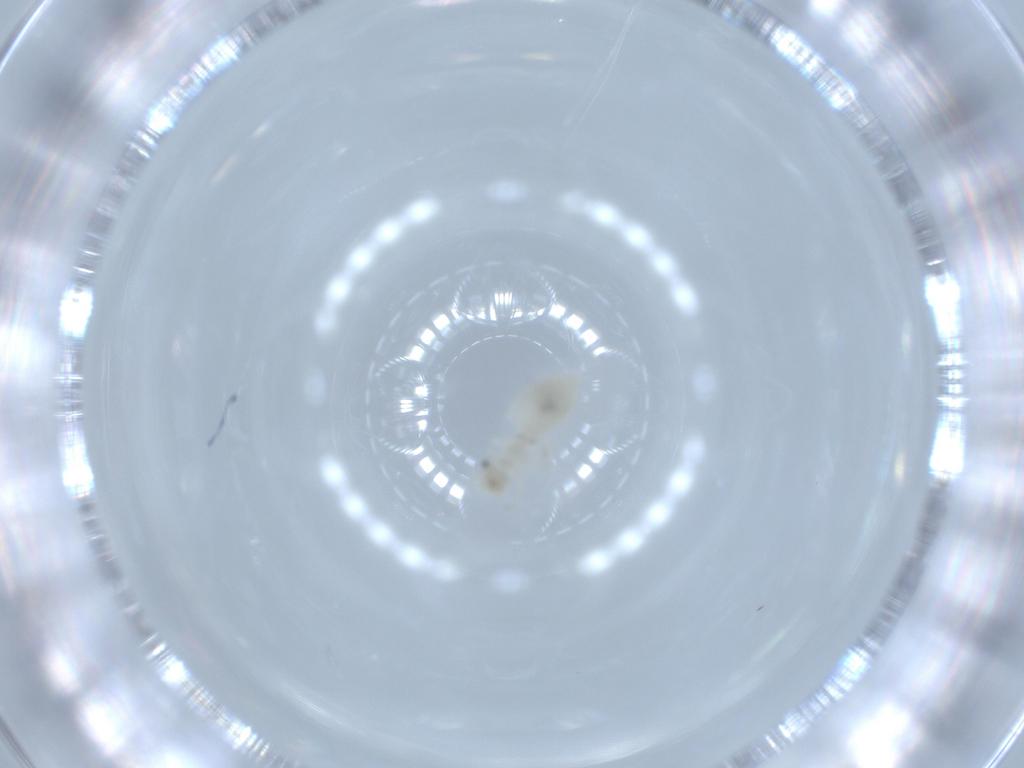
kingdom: Animalia
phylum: Arthropoda
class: Insecta
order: Psocodea
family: Caeciliusidae
